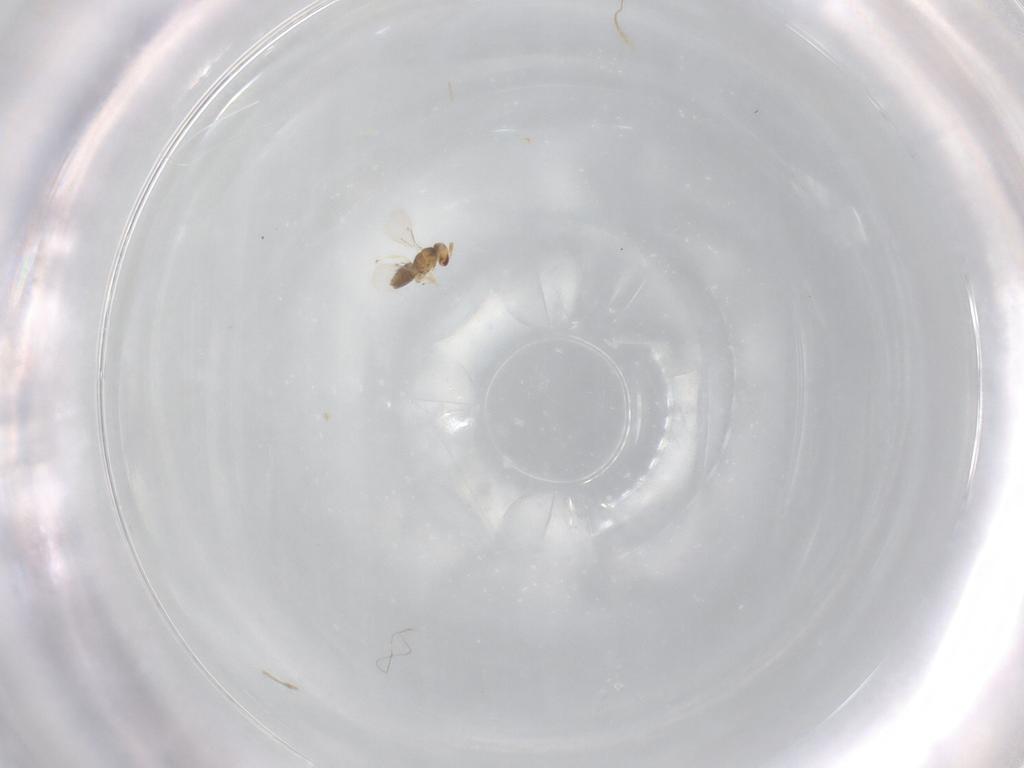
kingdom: Animalia
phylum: Arthropoda
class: Insecta
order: Hymenoptera
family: Eulophidae
